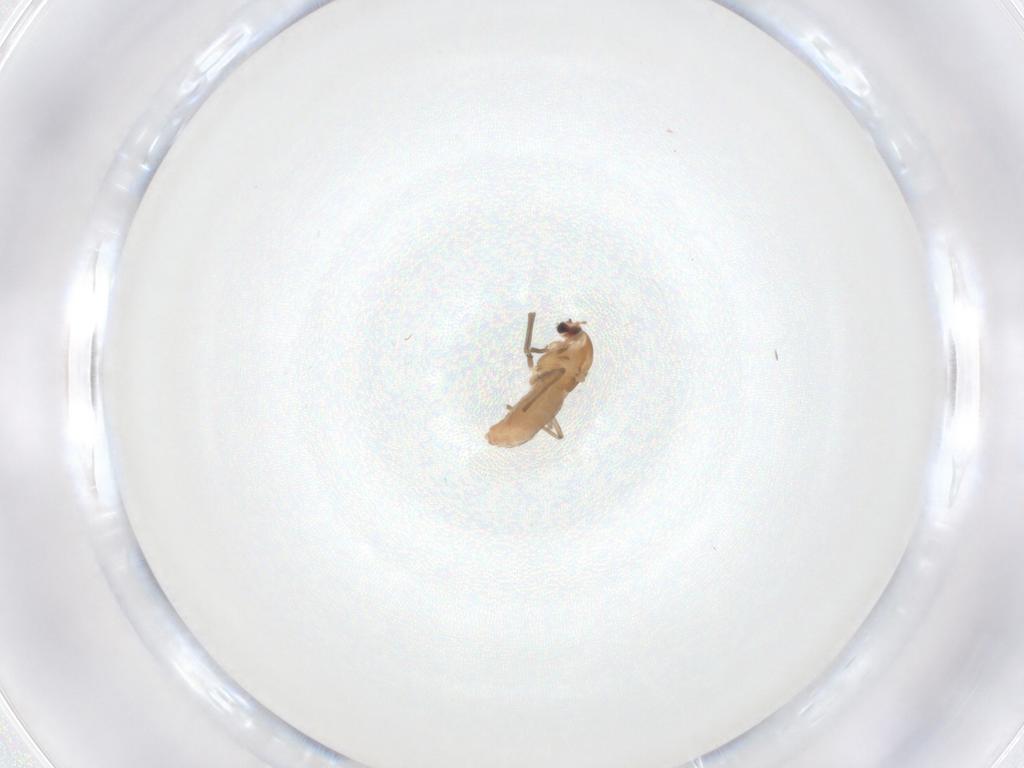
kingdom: Animalia
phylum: Arthropoda
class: Insecta
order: Diptera
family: Chironomidae
